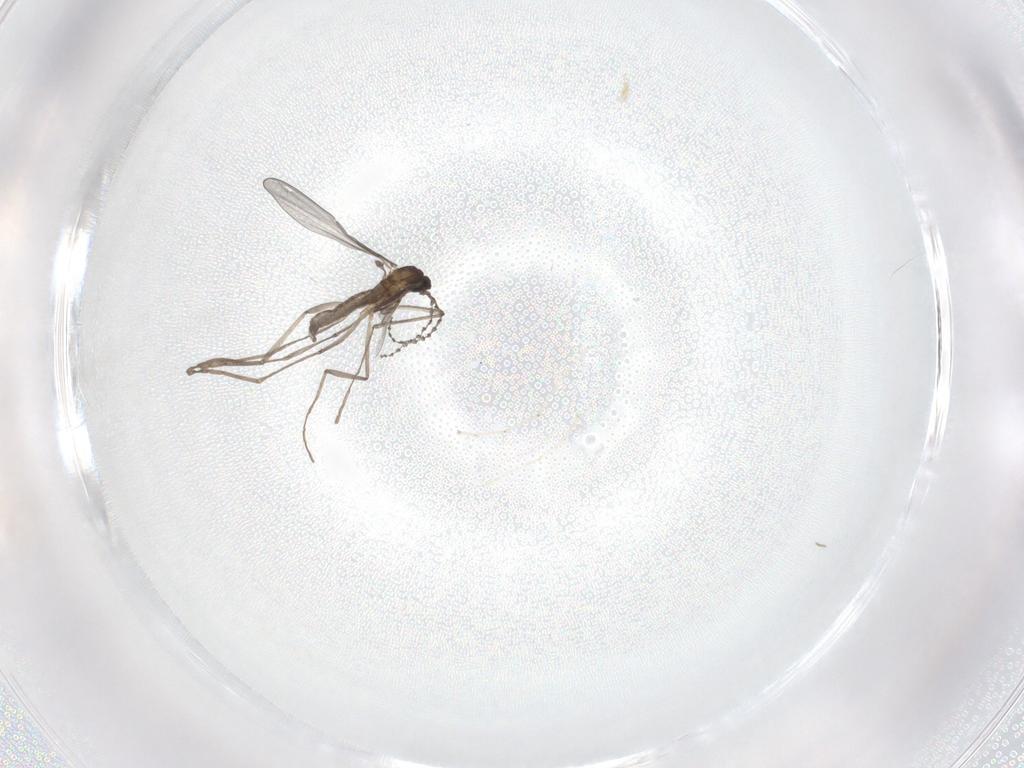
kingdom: Animalia
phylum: Arthropoda
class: Insecta
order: Diptera
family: Cecidomyiidae
